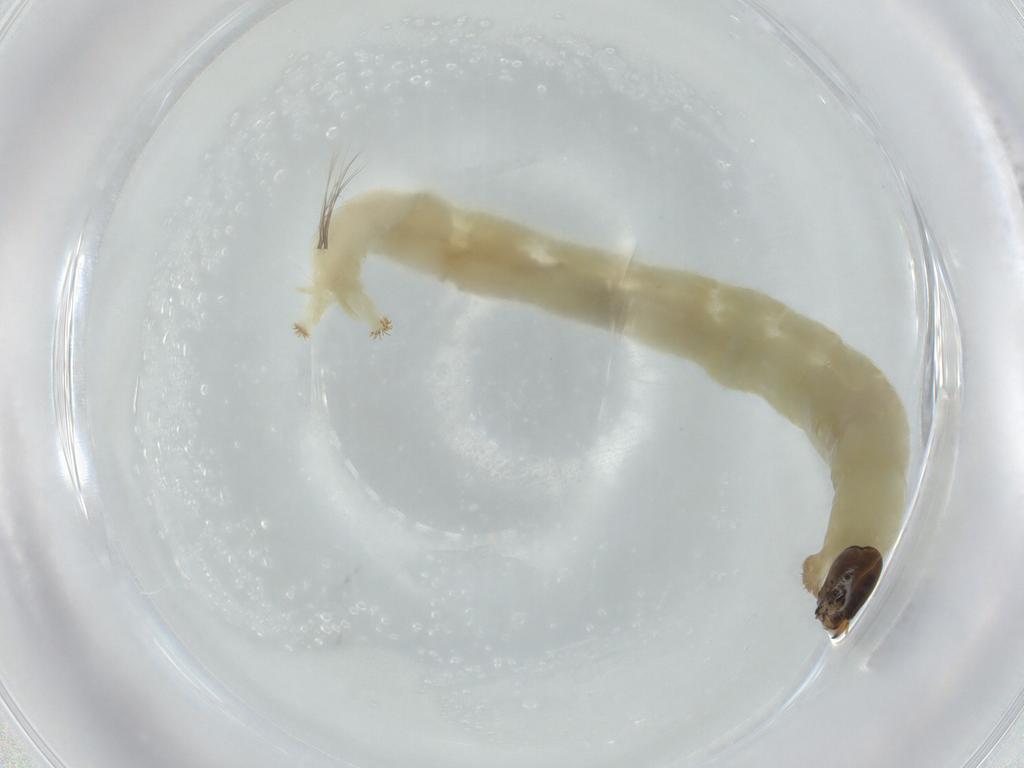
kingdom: Animalia
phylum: Arthropoda
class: Insecta
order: Diptera
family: Chironomidae
